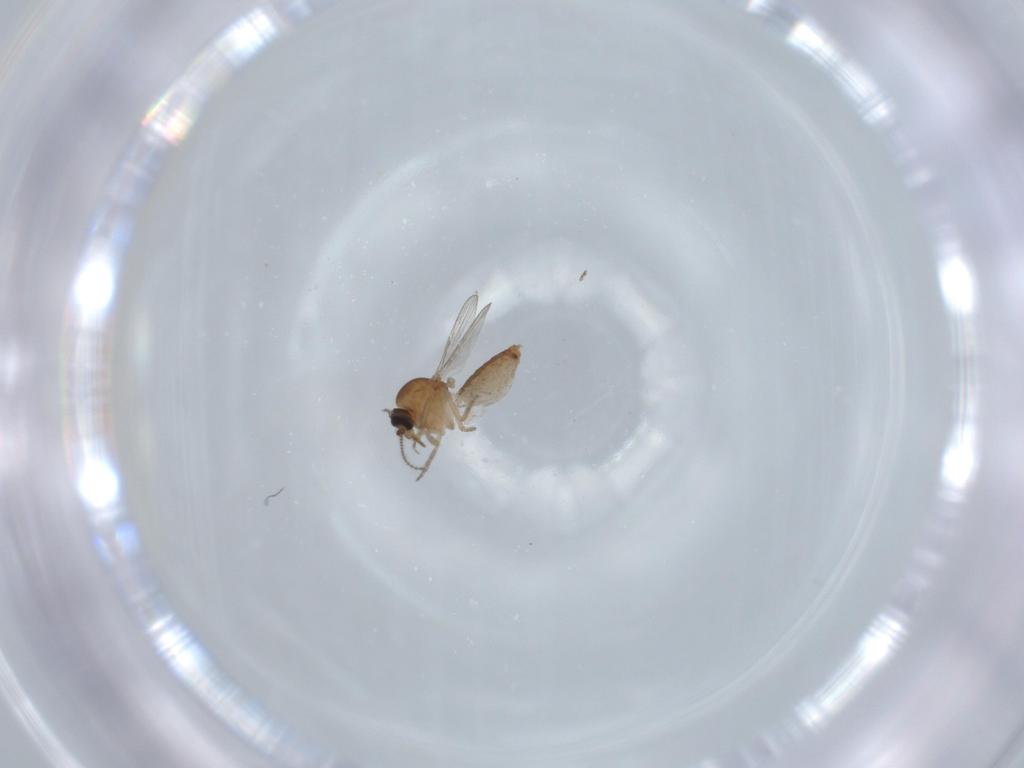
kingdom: Animalia
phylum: Arthropoda
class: Insecta
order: Diptera
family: Ceratopogonidae
